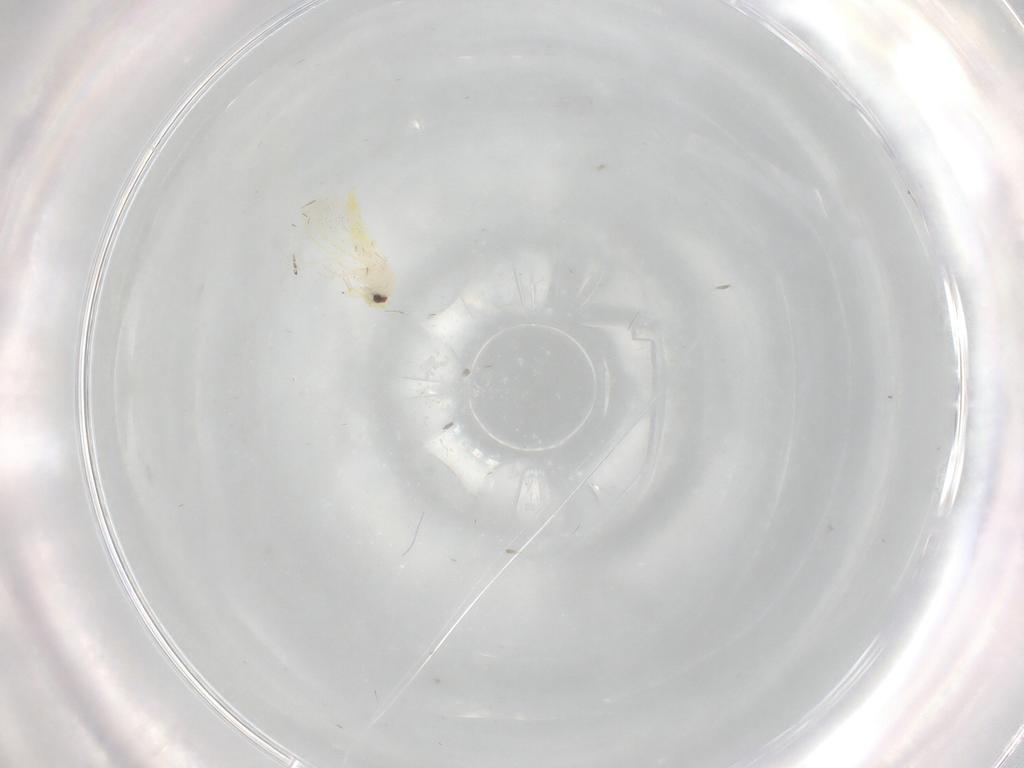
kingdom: Animalia
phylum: Arthropoda
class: Insecta
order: Hemiptera
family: Aleyrodidae
